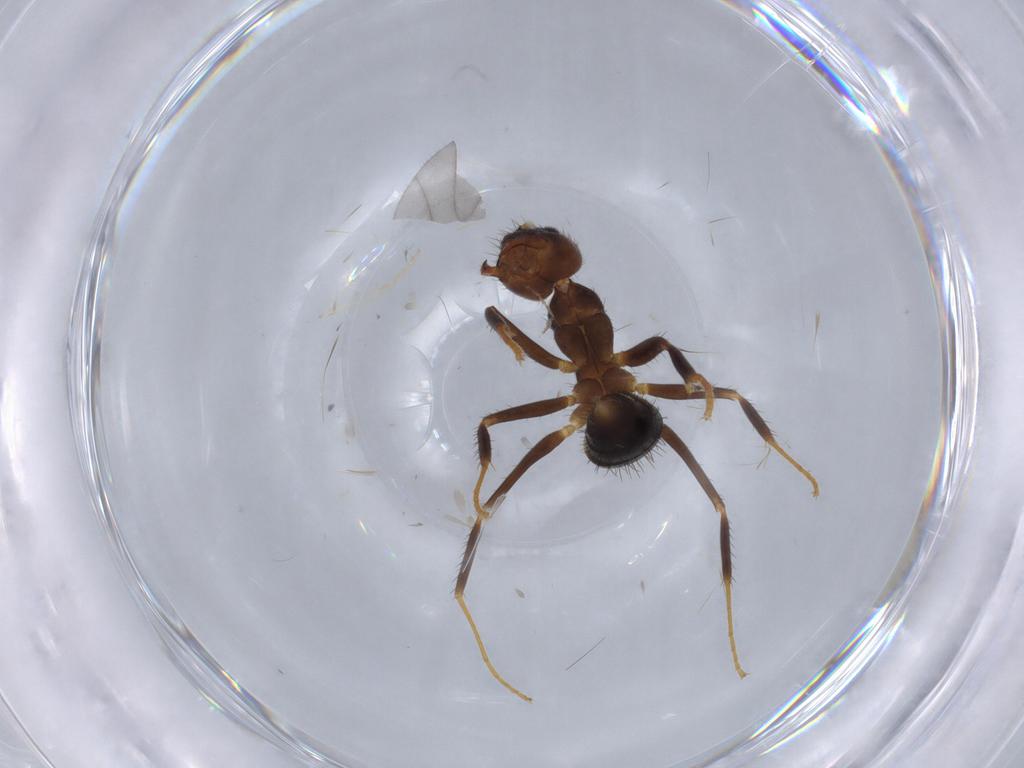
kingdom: Animalia
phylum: Arthropoda
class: Insecta
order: Hymenoptera
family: Formicidae
